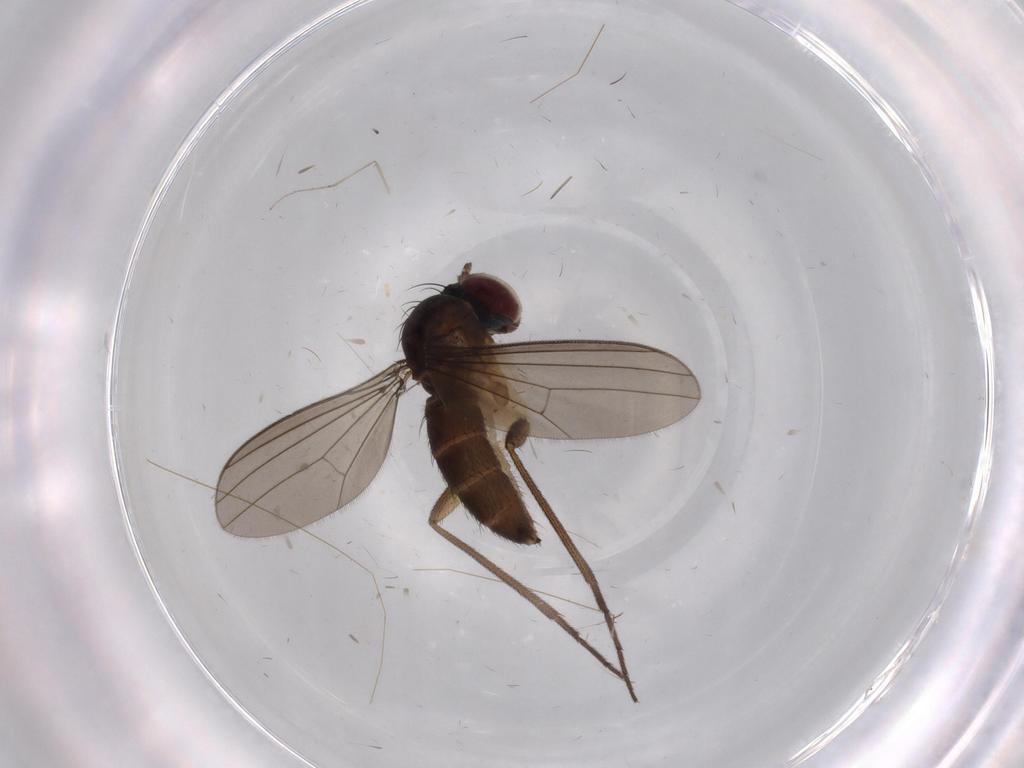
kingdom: Animalia
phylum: Arthropoda
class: Insecta
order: Diptera
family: Dolichopodidae
